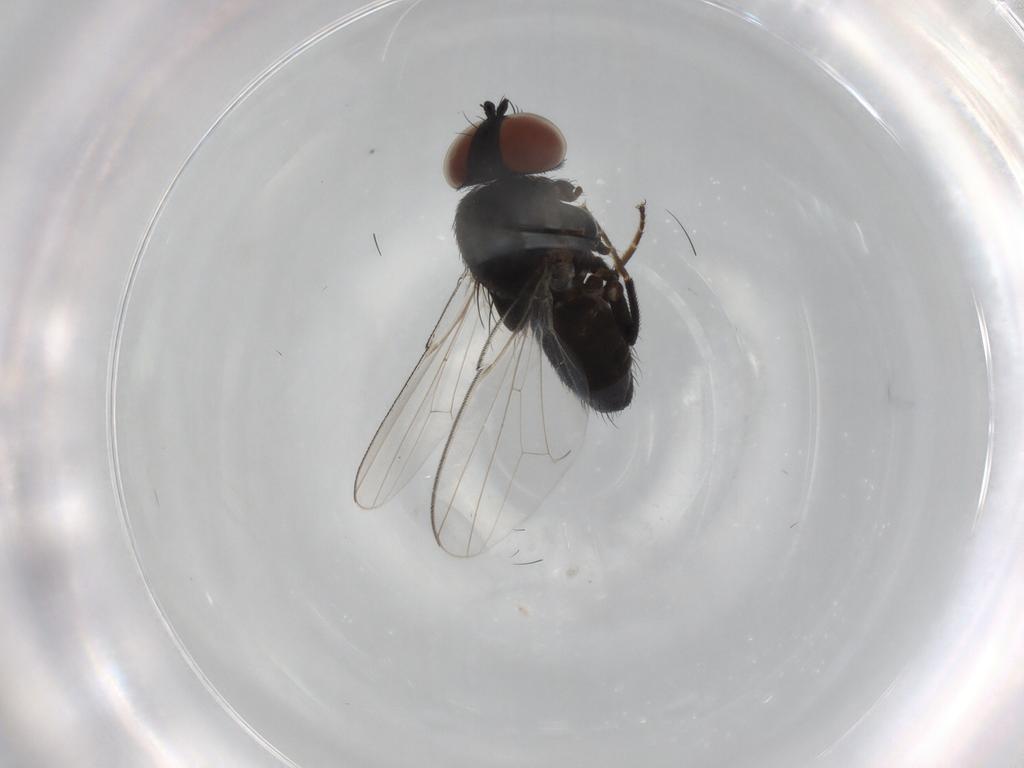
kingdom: Animalia
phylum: Arthropoda
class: Insecta
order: Diptera
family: Milichiidae
